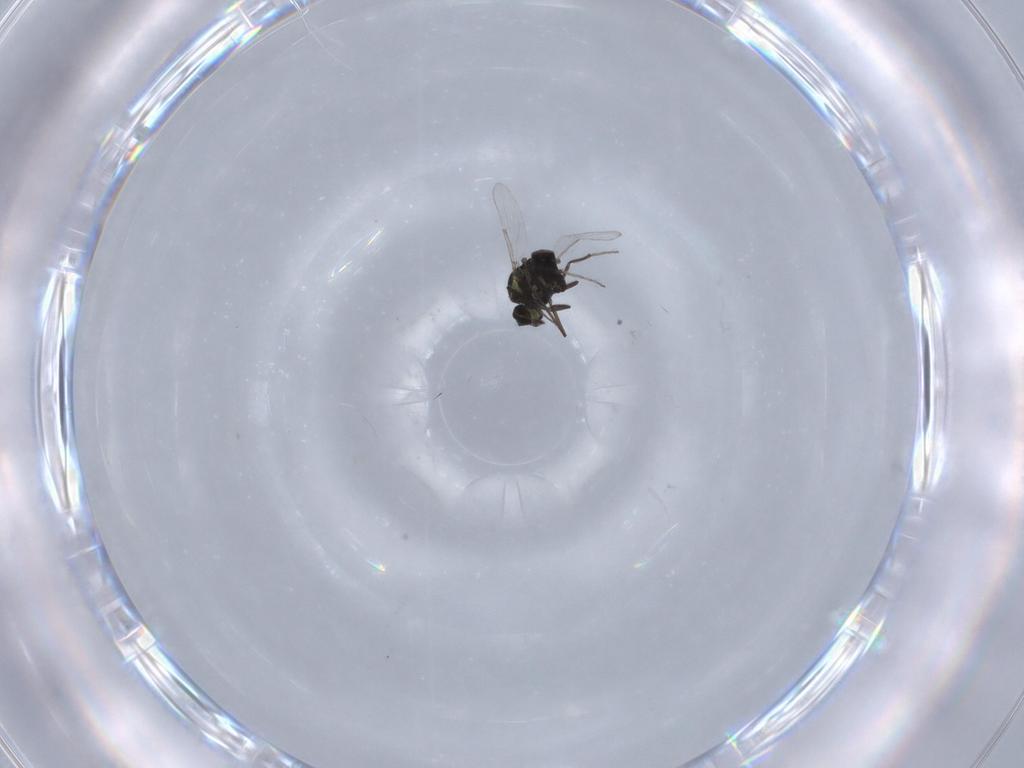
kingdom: Animalia
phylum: Arthropoda
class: Insecta
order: Diptera
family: Ceratopogonidae
